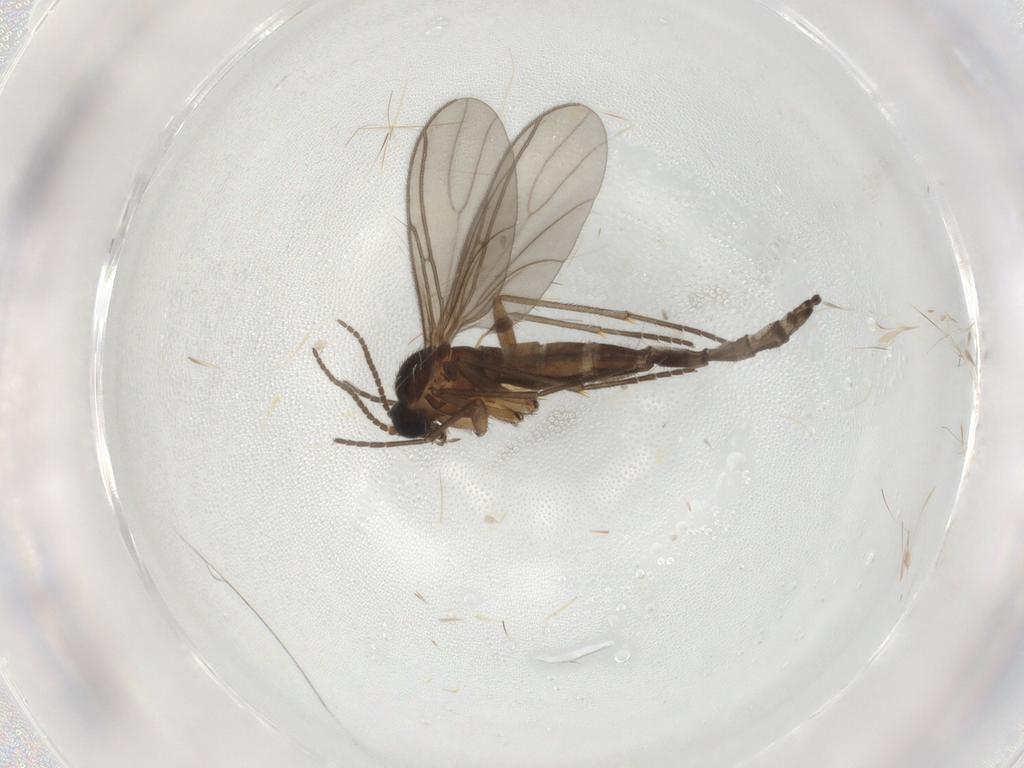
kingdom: Animalia
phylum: Arthropoda
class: Insecta
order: Diptera
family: Sciaridae
